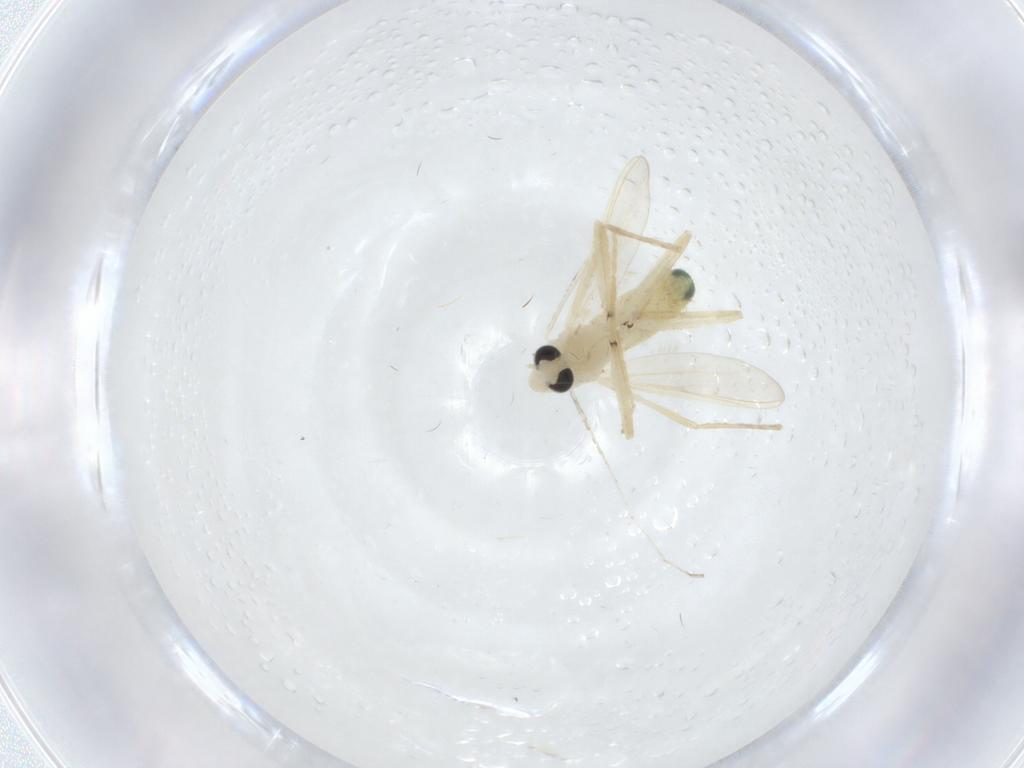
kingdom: Animalia
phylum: Arthropoda
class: Insecta
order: Diptera
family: Chironomidae
